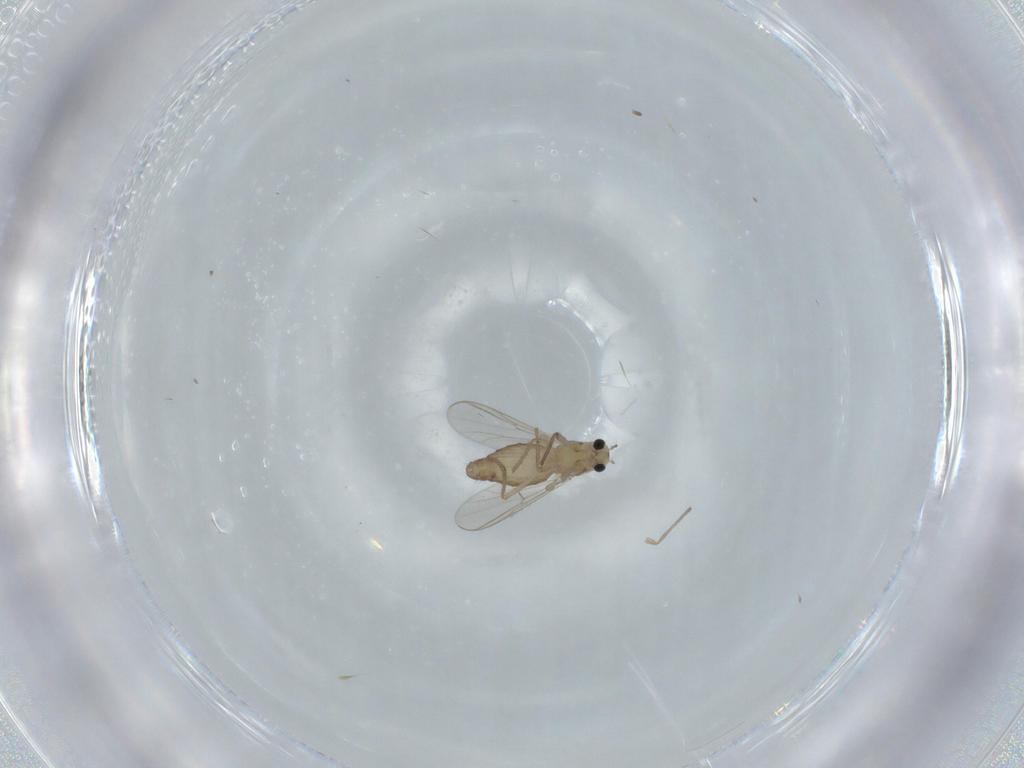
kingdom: Animalia
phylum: Arthropoda
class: Insecta
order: Diptera
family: Chironomidae
